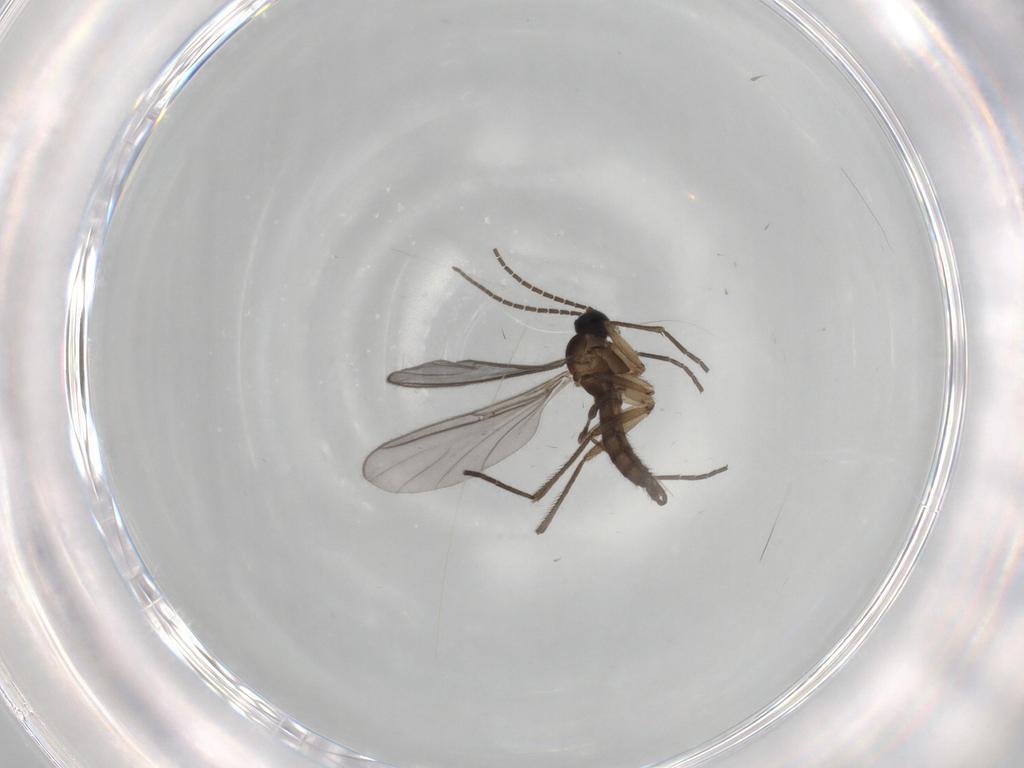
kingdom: Animalia
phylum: Arthropoda
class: Insecta
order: Diptera
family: Sciaridae
